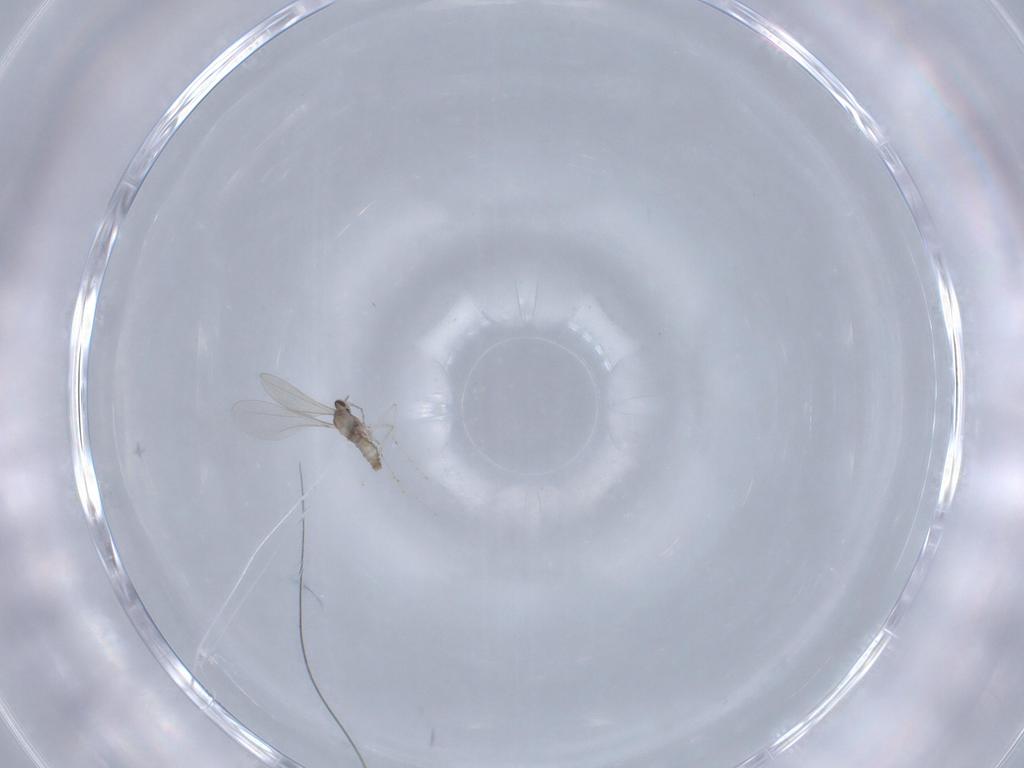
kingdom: Animalia
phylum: Arthropoda
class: Insecta
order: Diptera
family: Cecidomyiidae
